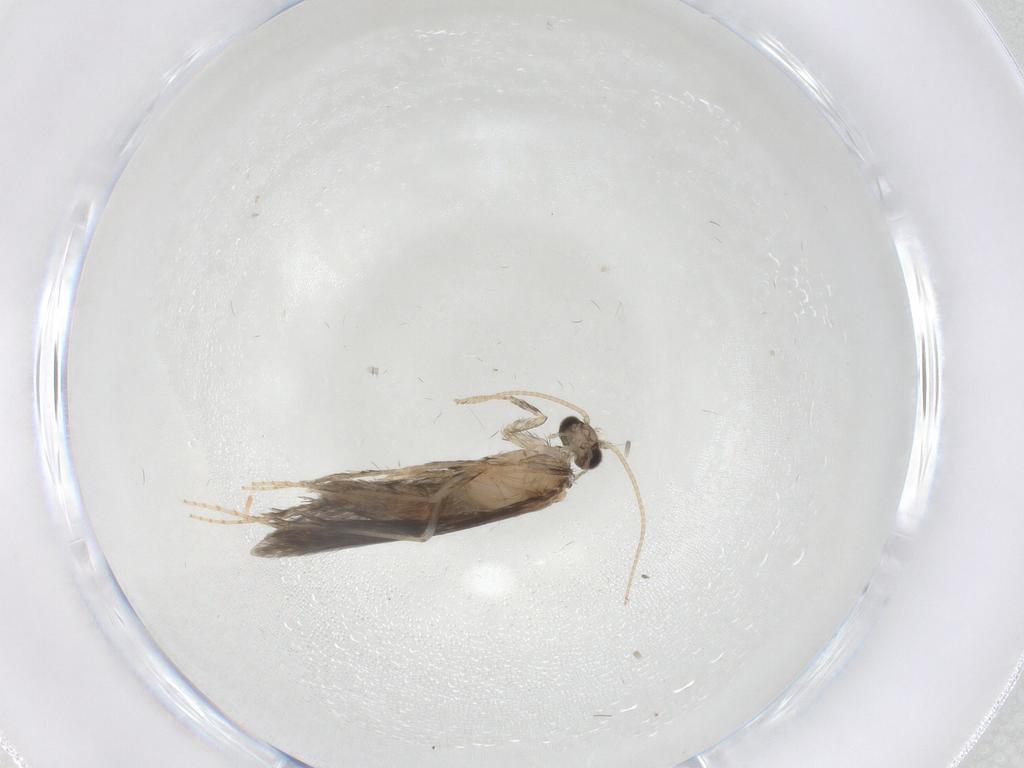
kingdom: Animalia
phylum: Arthropoda
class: Insecta
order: Trichoptera
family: Hydroptilidae
